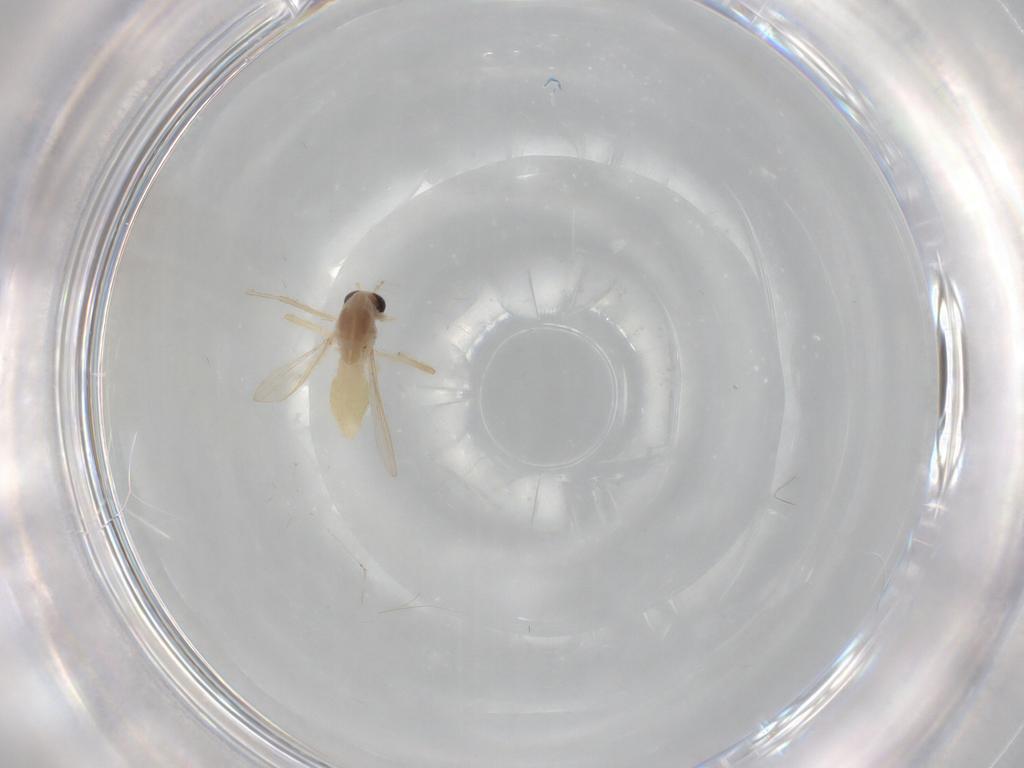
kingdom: Animalia
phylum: Arthropoda
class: Insecta
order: Diptera
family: Chironomidae
